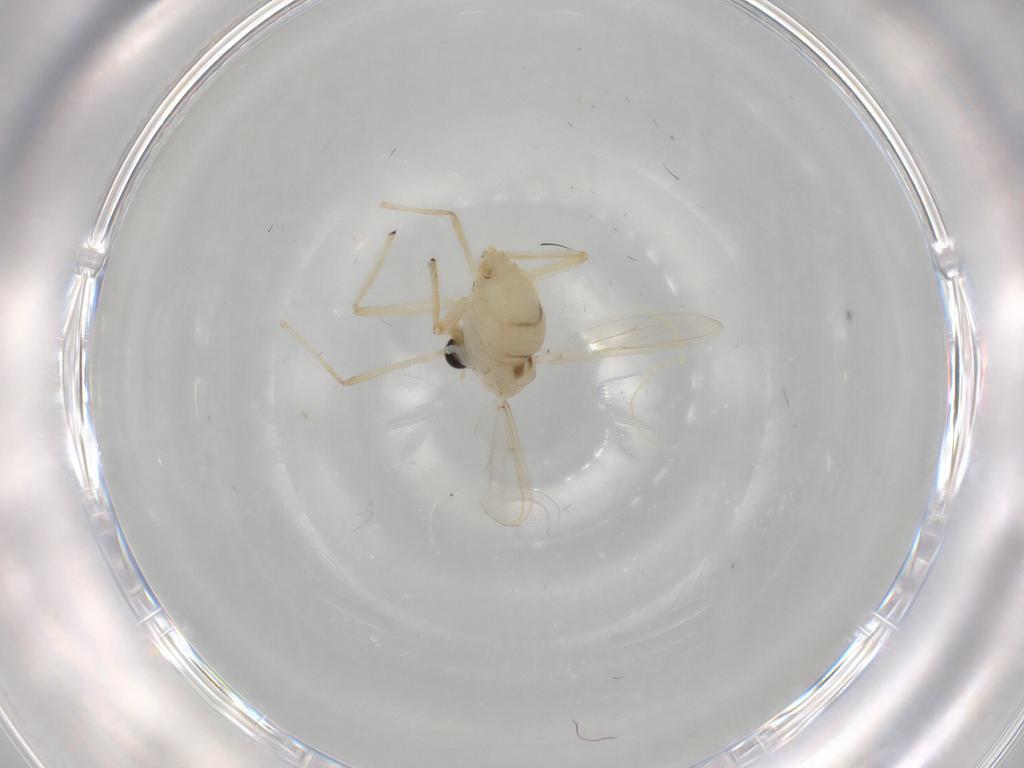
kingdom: Animalia
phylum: Arthropoda
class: Insecta
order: Diptera
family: Chironomidae
